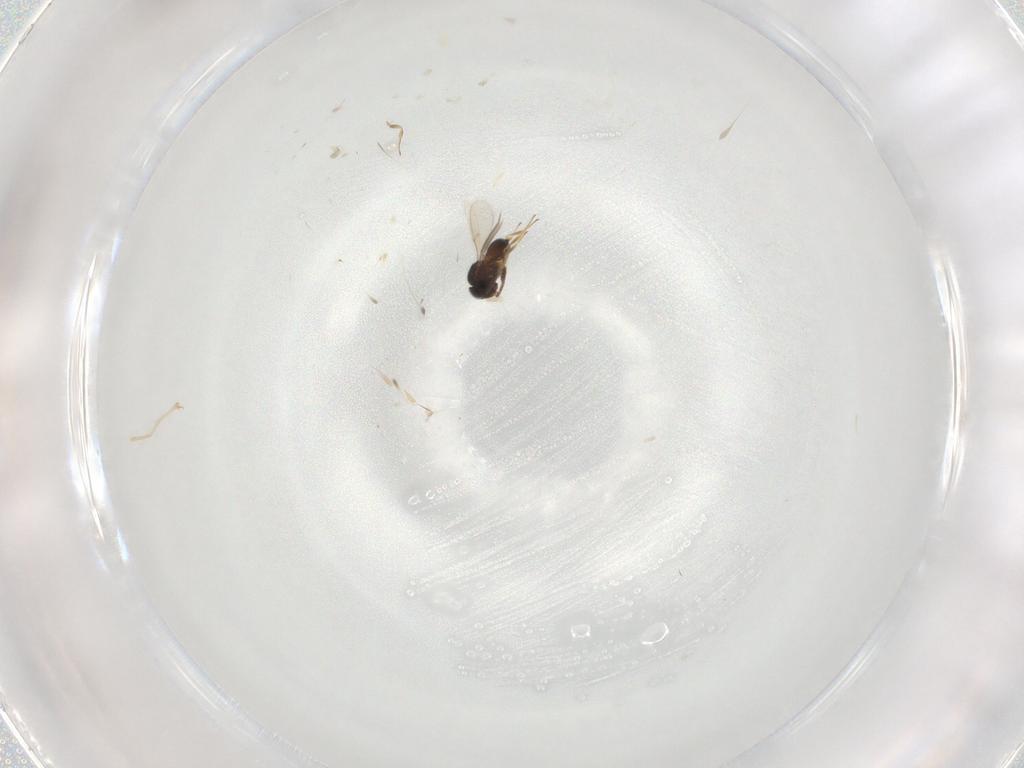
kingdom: Animalia
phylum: Arthropoda
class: Insecta
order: Hymenoptera
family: Scelionidae
